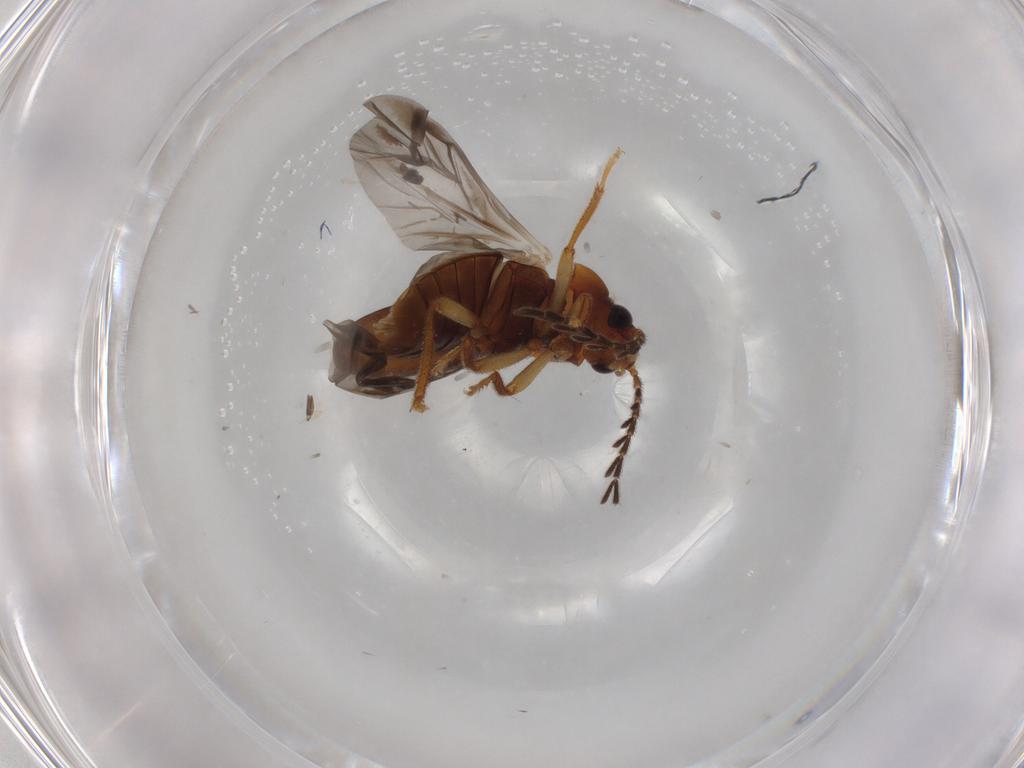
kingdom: Animalia
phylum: Arthropoda
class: Insecta
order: Coleoptera
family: Ptilodactylidae
